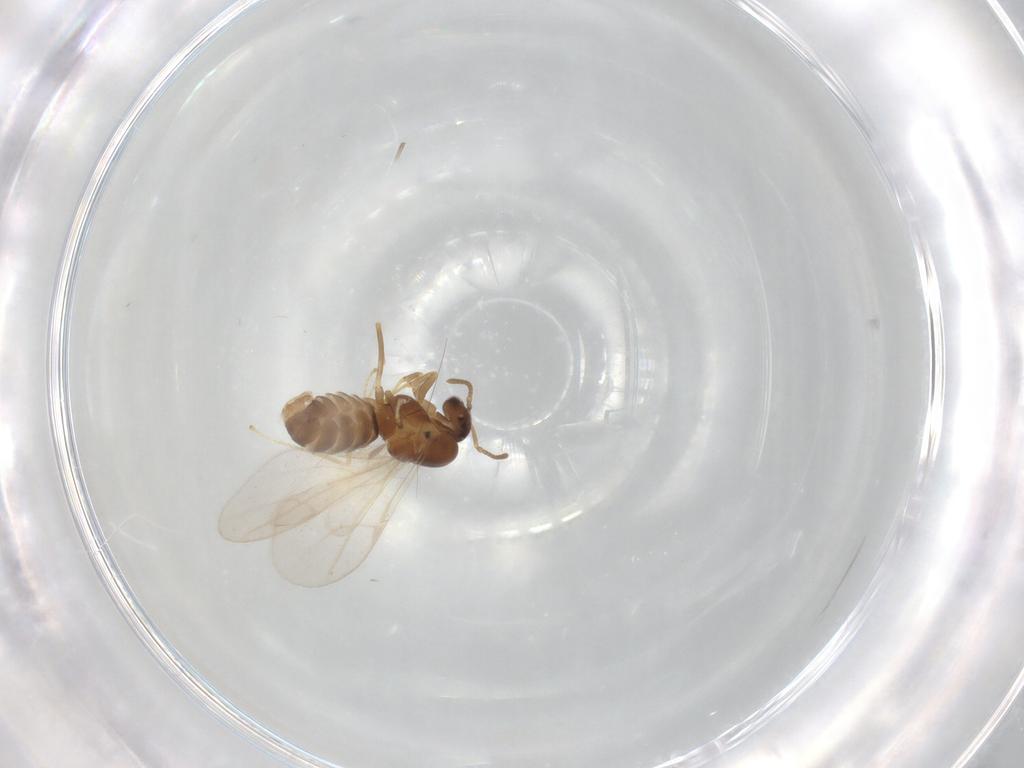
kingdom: Animalia
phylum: Arthropoda
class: Insecta
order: Hymenoptera
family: Formicidae
